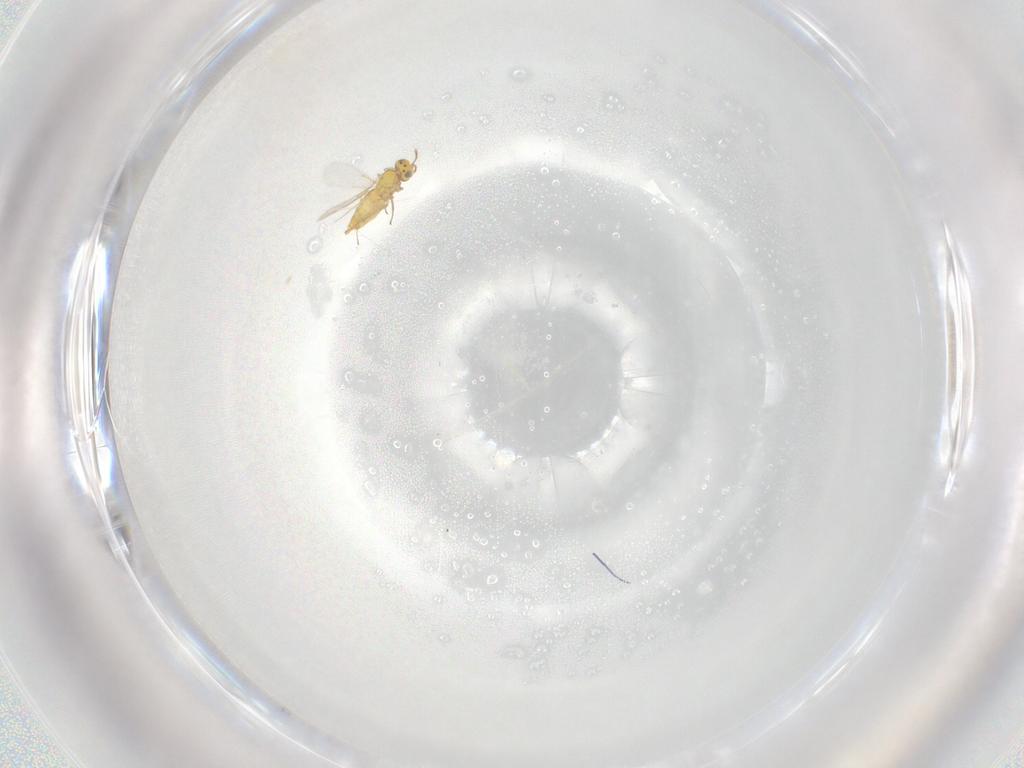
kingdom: Animalia
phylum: Arthropoda
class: Insecta
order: Hymenoptera
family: Aphelinidae
